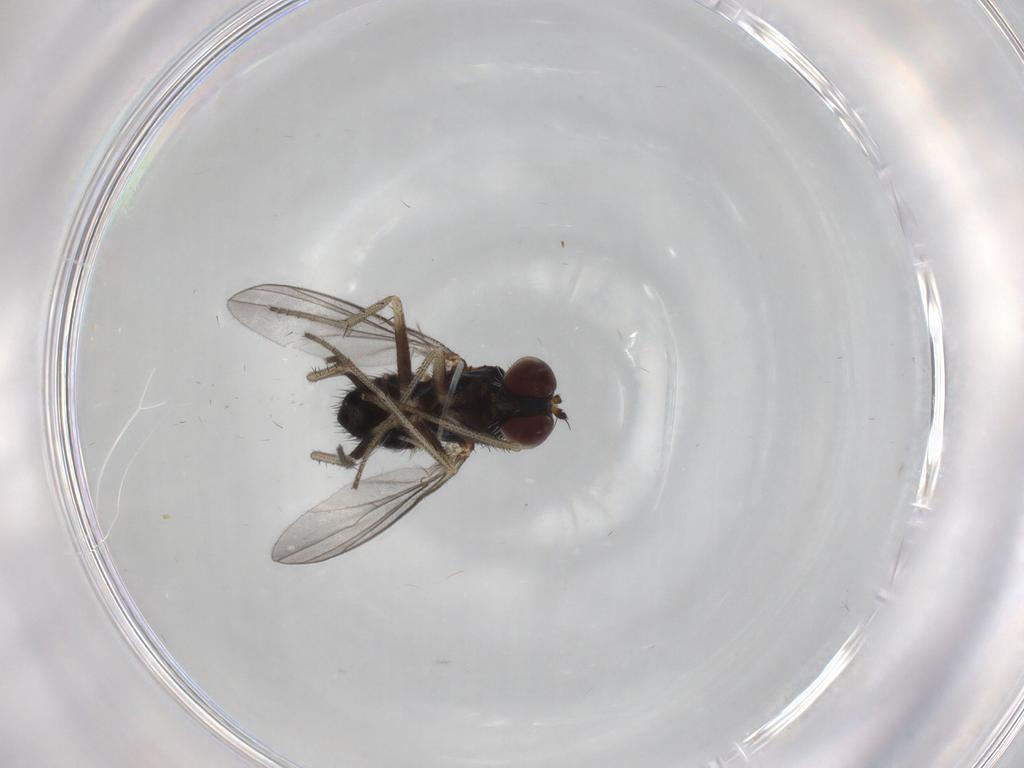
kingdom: Animalia
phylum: Arthropoda
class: Insecta
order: Diptera
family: Dolichopodidae
